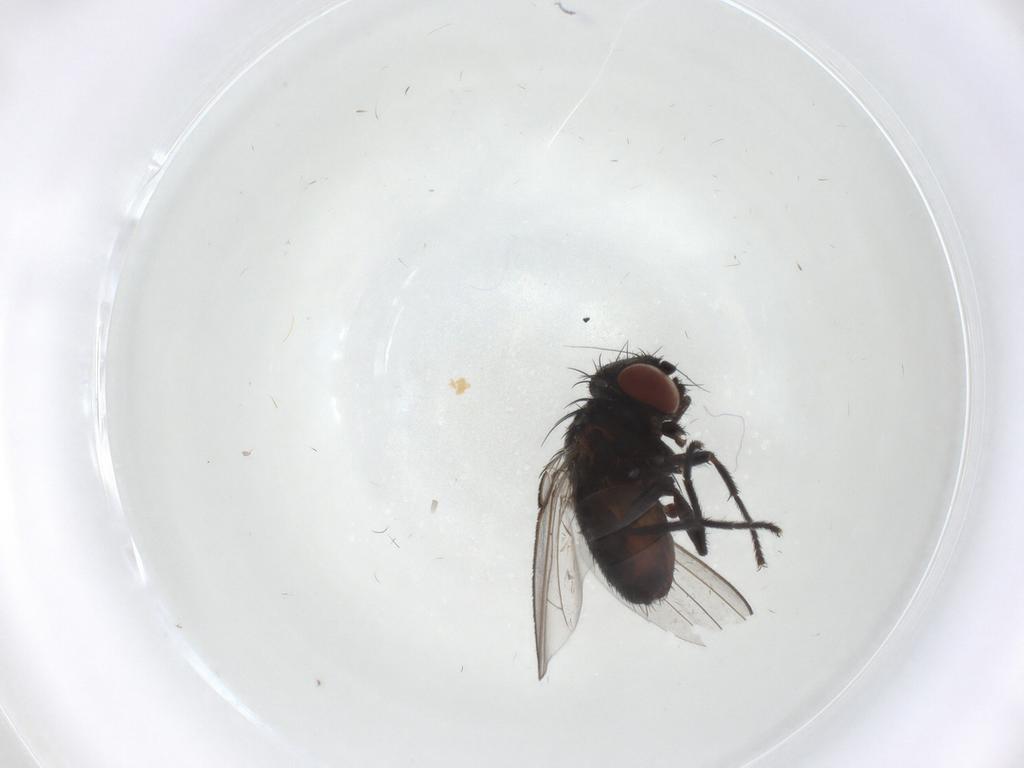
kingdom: Animalia
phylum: Arthropoda
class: Insecta
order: Diptera
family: Milichiidae
